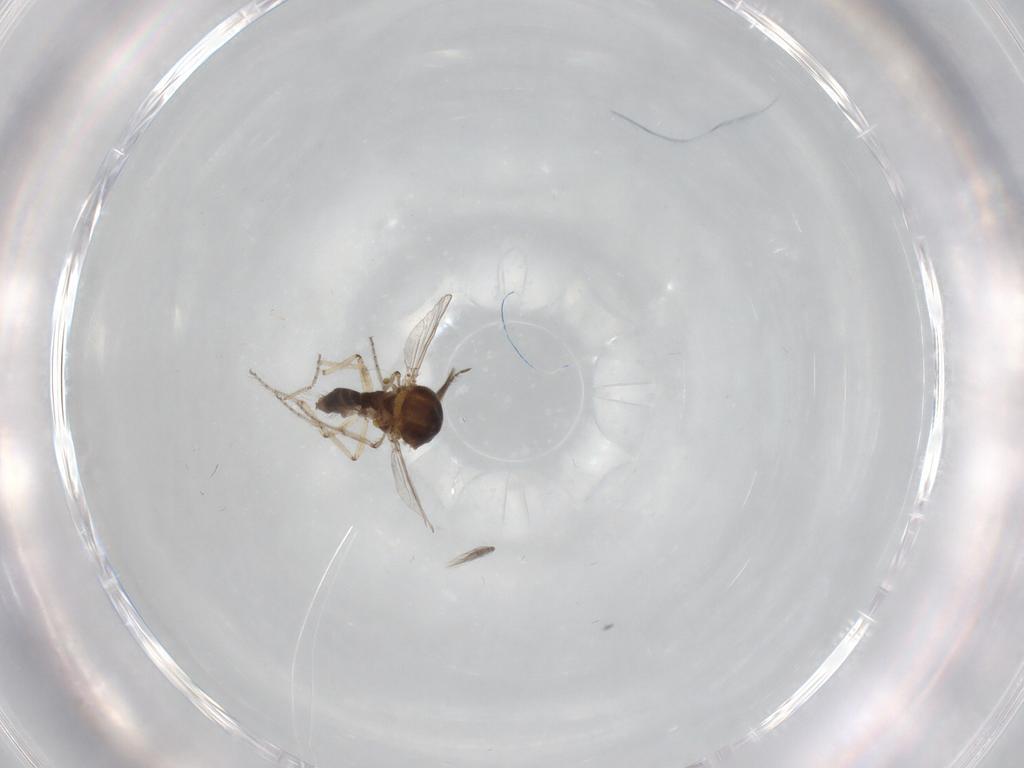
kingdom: Animalia
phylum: Arthropoda
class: Insecta
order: Diptera
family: Ceratopogonidae
